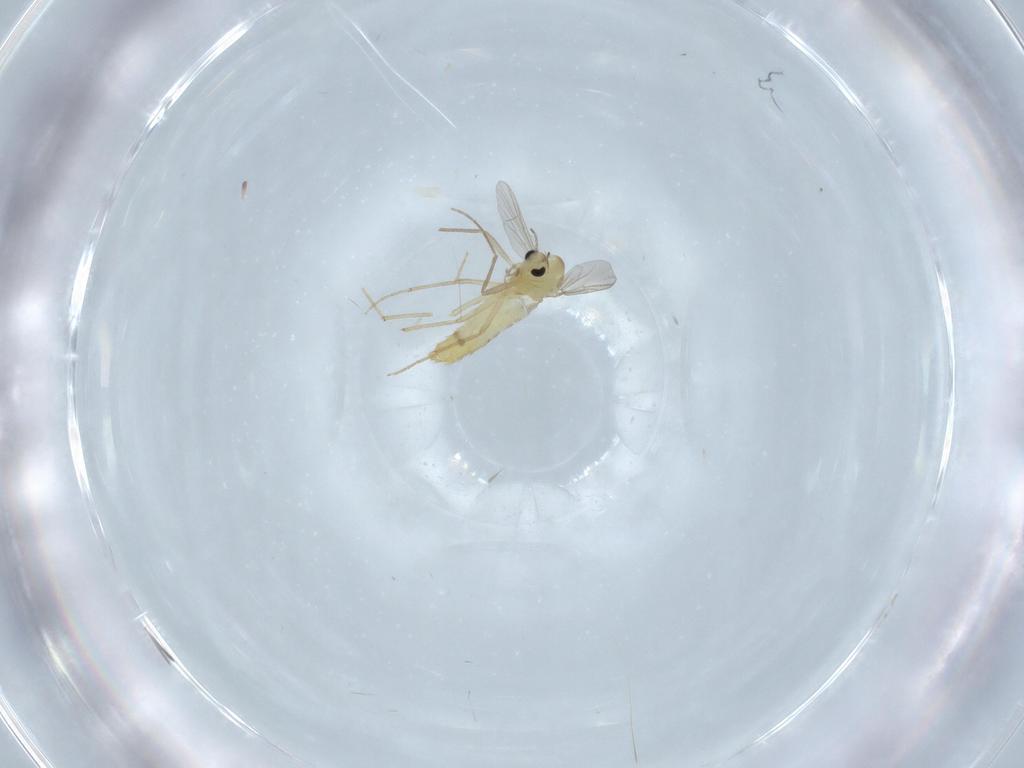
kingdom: Animalia
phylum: Arthropoda
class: Insecta
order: Diptera
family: Chironomidae
